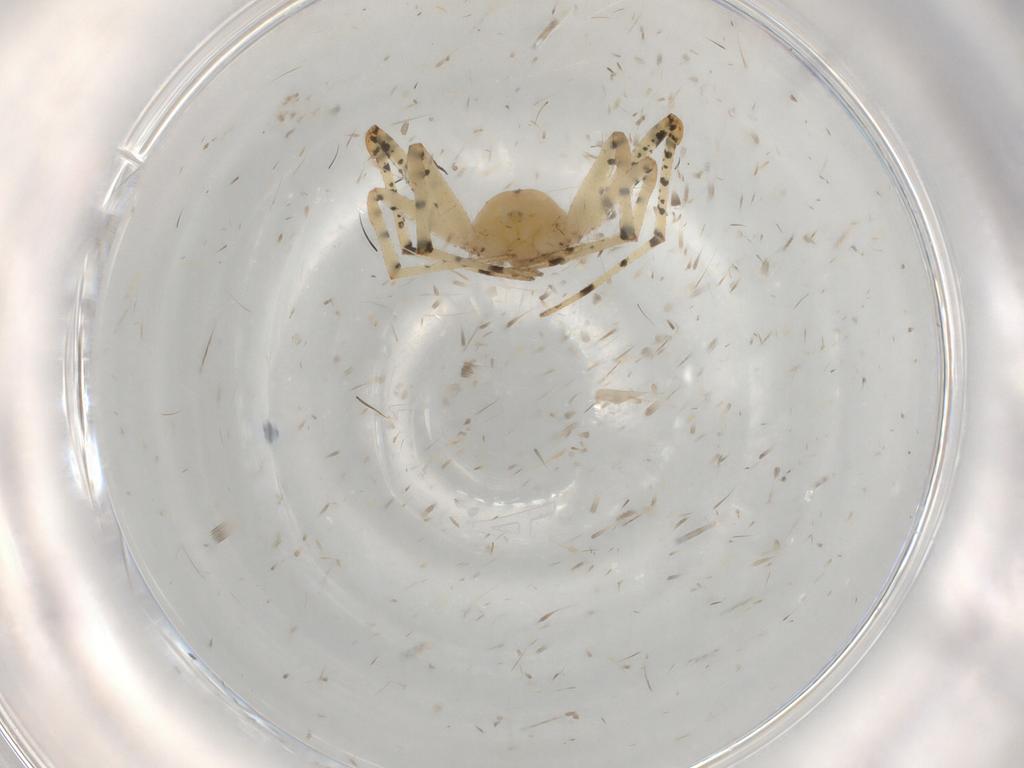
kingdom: Animalia
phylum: Arthropoda
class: Arachnida
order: Araneae
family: Theridiidae
